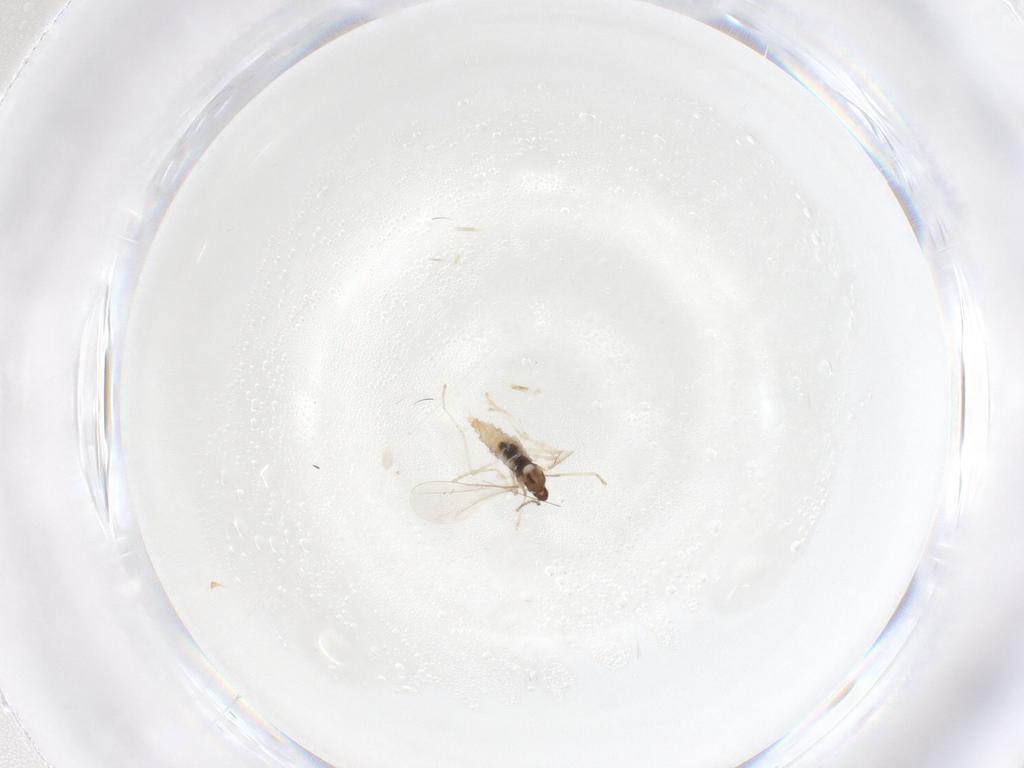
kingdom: Animalia
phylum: Arthropoda
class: Insecta
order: Diptera
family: Cecidomyiidae
